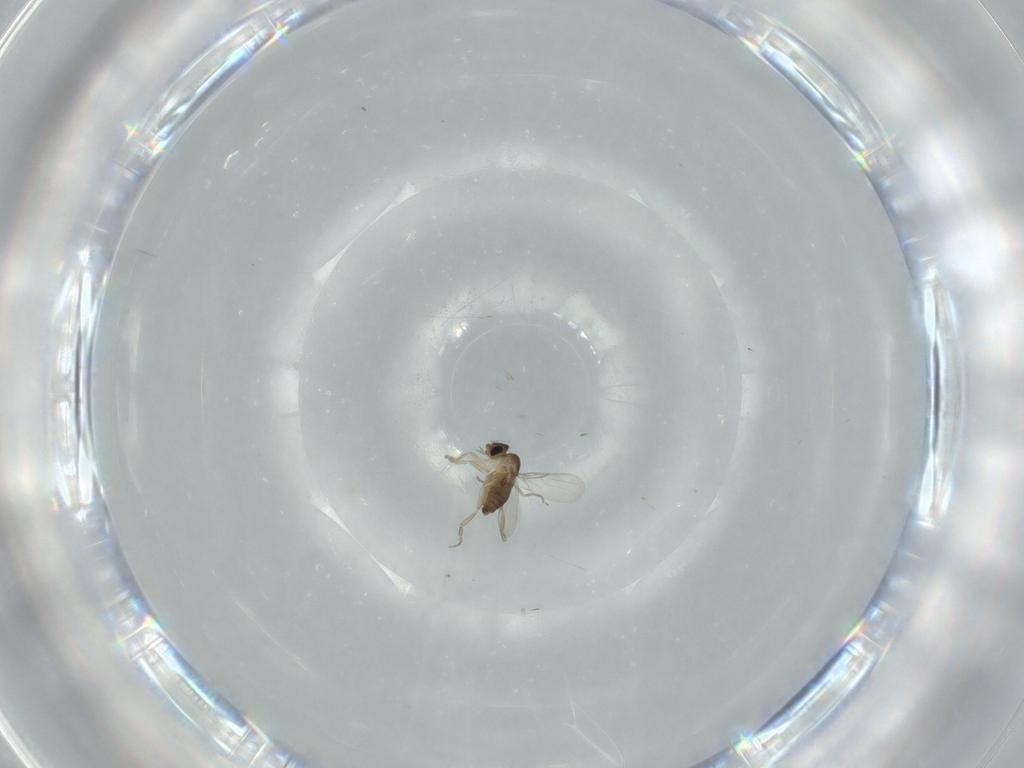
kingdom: Animalia
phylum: Arthropoda
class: Insecta
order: Diptera
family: Phoridae
